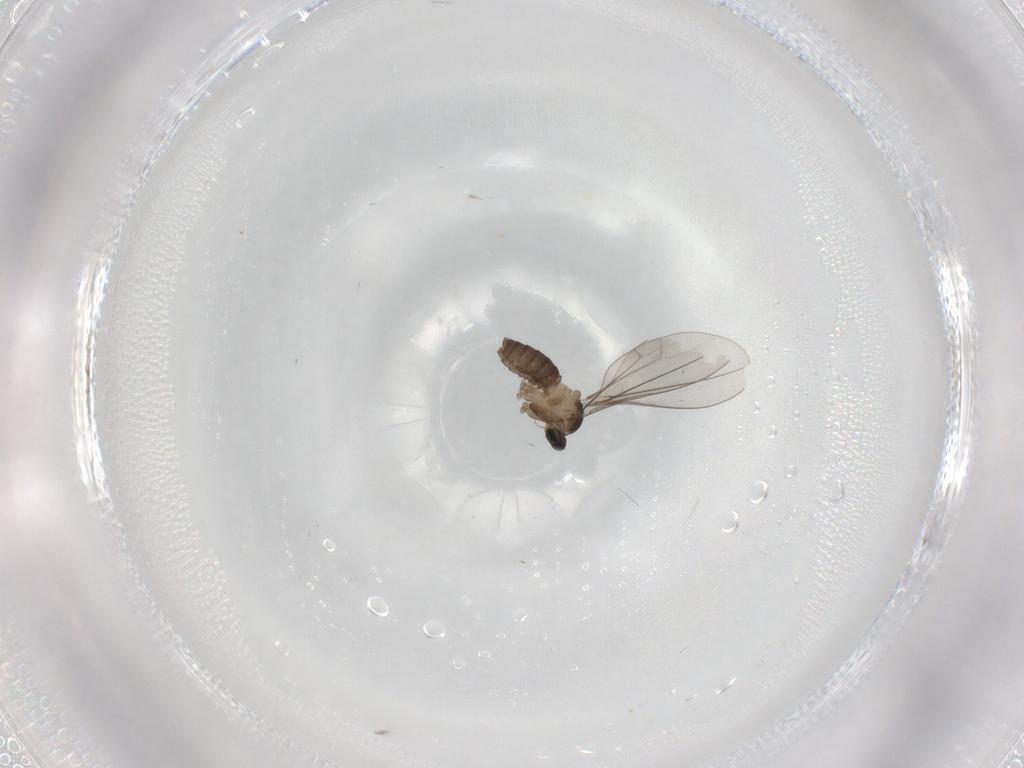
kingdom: Animalia
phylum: Arthropoda
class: Insecta
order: Diptera
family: Cecidomyiidae
